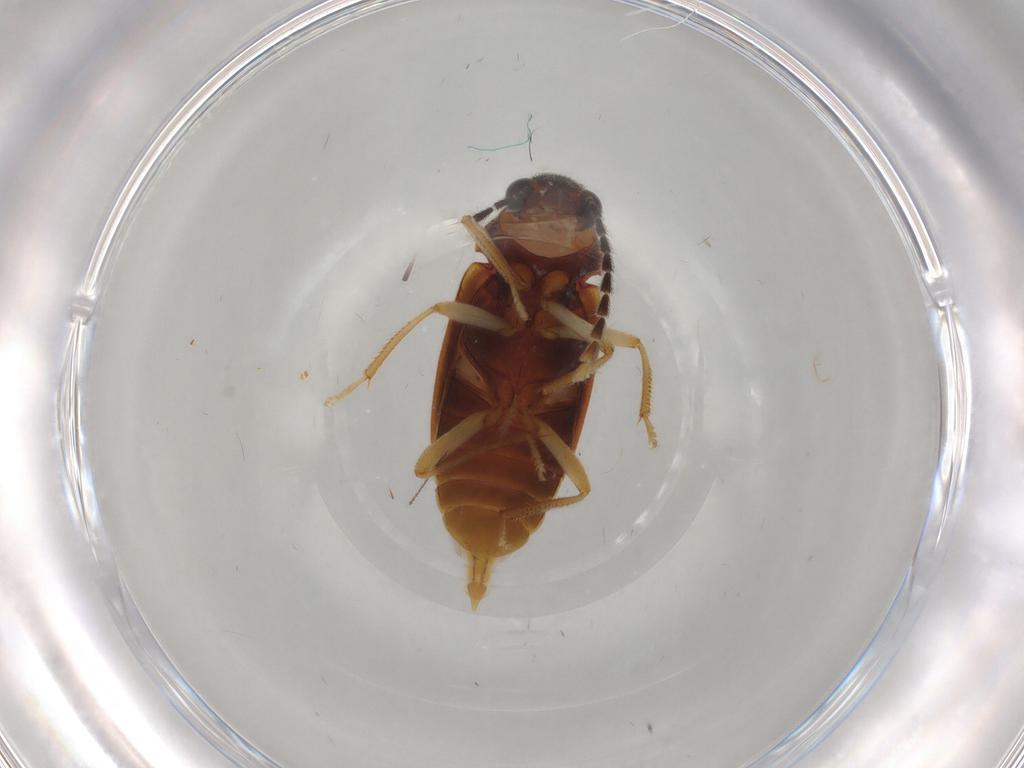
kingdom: Animalia
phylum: Arthropoda
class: Insecta
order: Coleoptera
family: Ptilodactylidae
